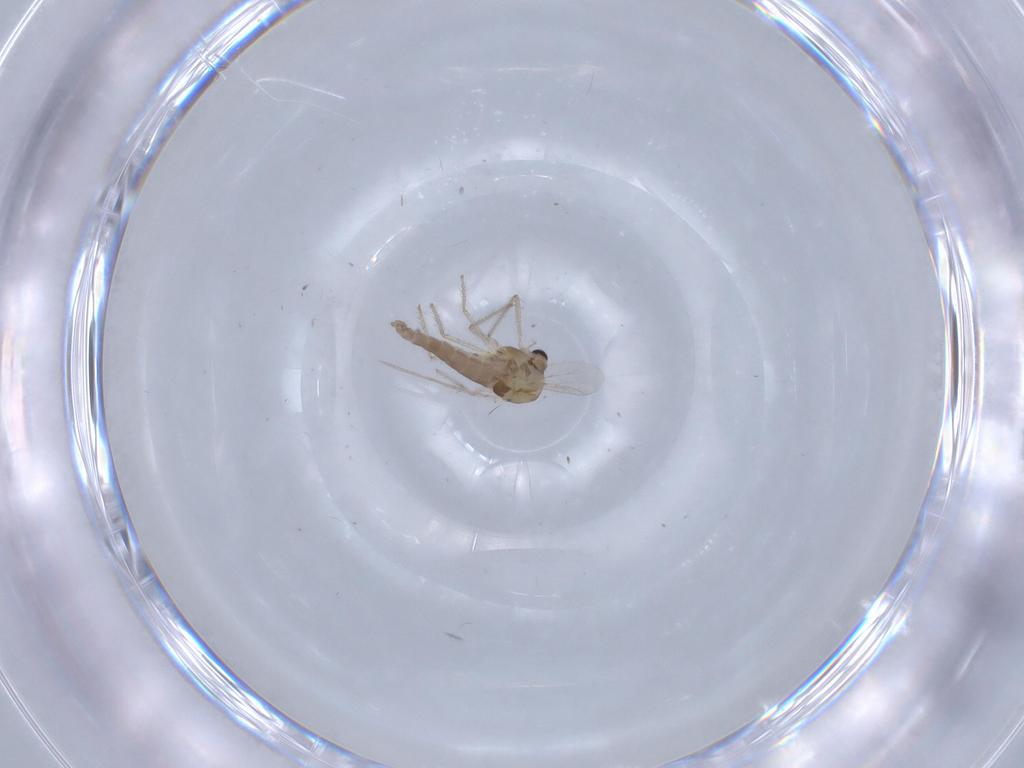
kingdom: Animalia
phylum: Arthropoda
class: Insecta
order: Diptera
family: Chironomidae
